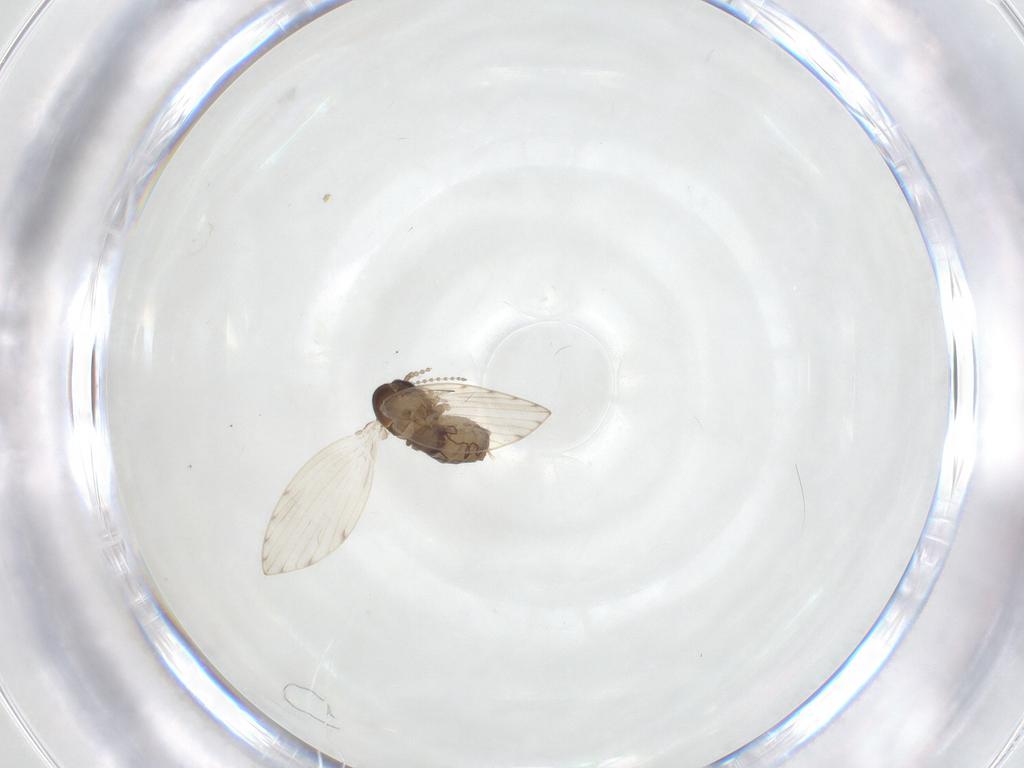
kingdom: Animalia
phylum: Arthropoda
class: Insecta
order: Diptera
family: Psychodidae
